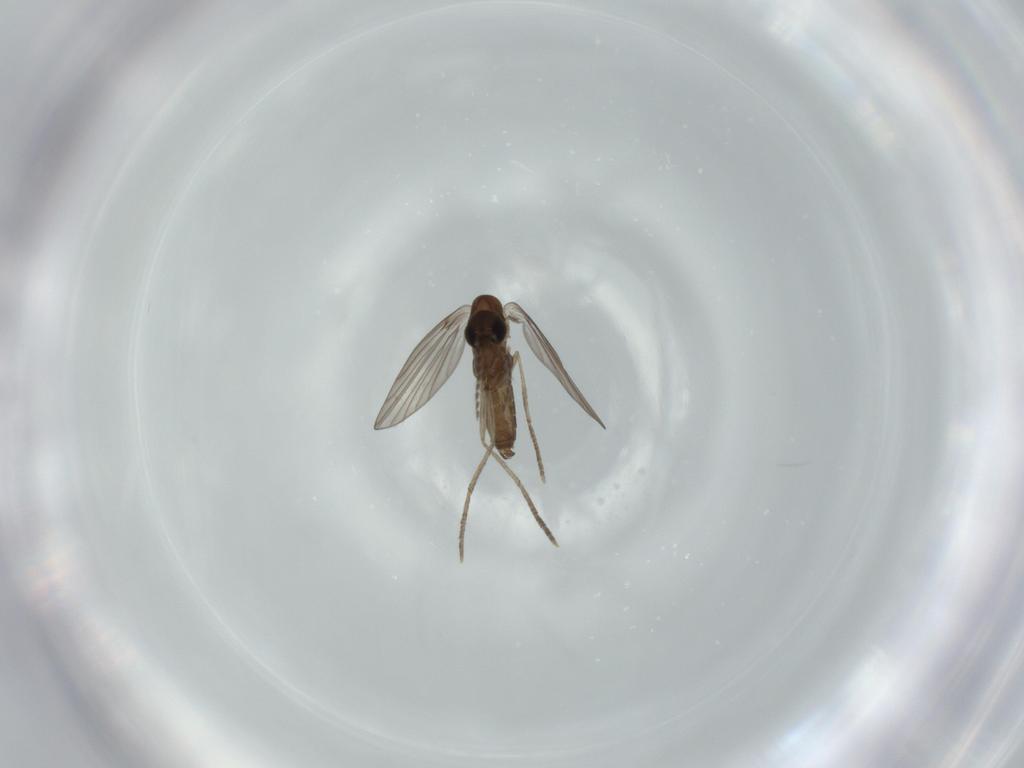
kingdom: Animalia
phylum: Arthropoda
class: Insecta
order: Diptera
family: Psychodidae
